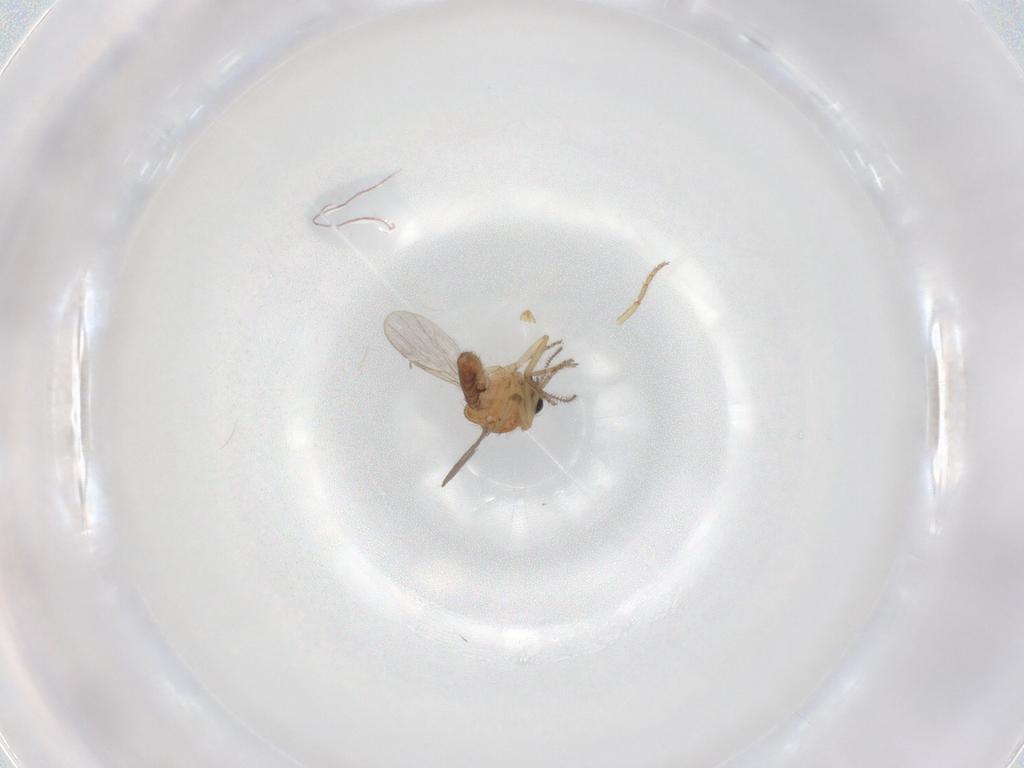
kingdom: Animalia
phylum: Arthropoda
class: Insecta
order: Diptera
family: Ceratopogonidae
